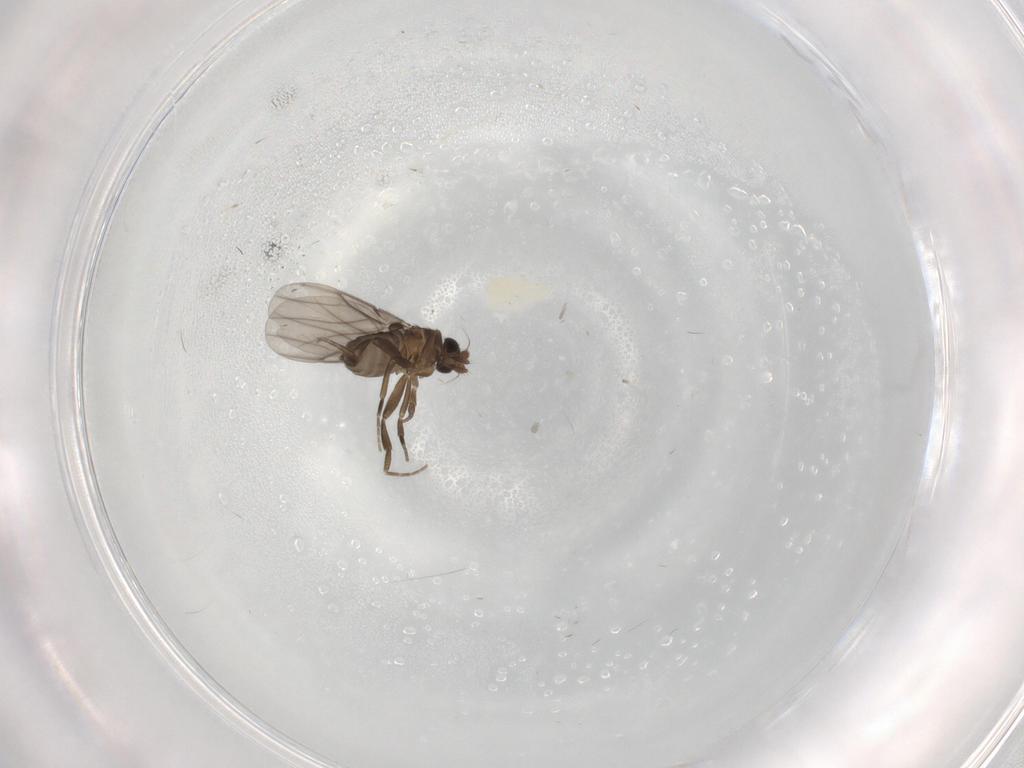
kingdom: Animalia
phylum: Arthropoda
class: Insecta
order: Diptera
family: Phoridae
